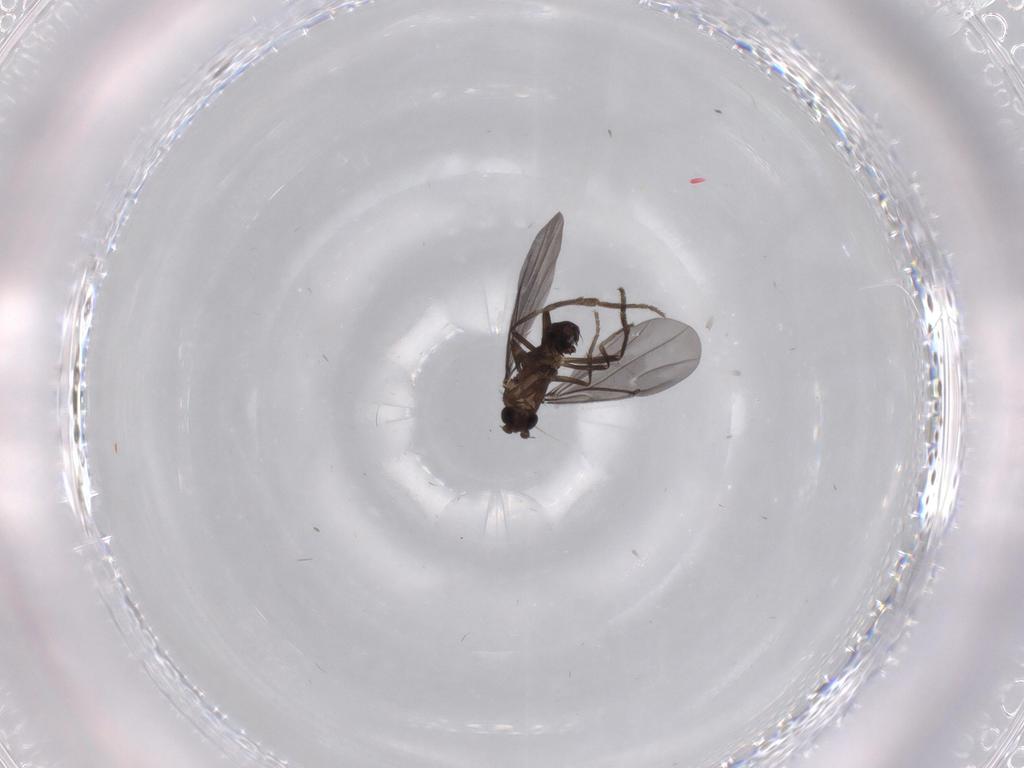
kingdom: Animalia
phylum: Arthropoda
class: Insecta
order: Diptera
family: Phoridae
